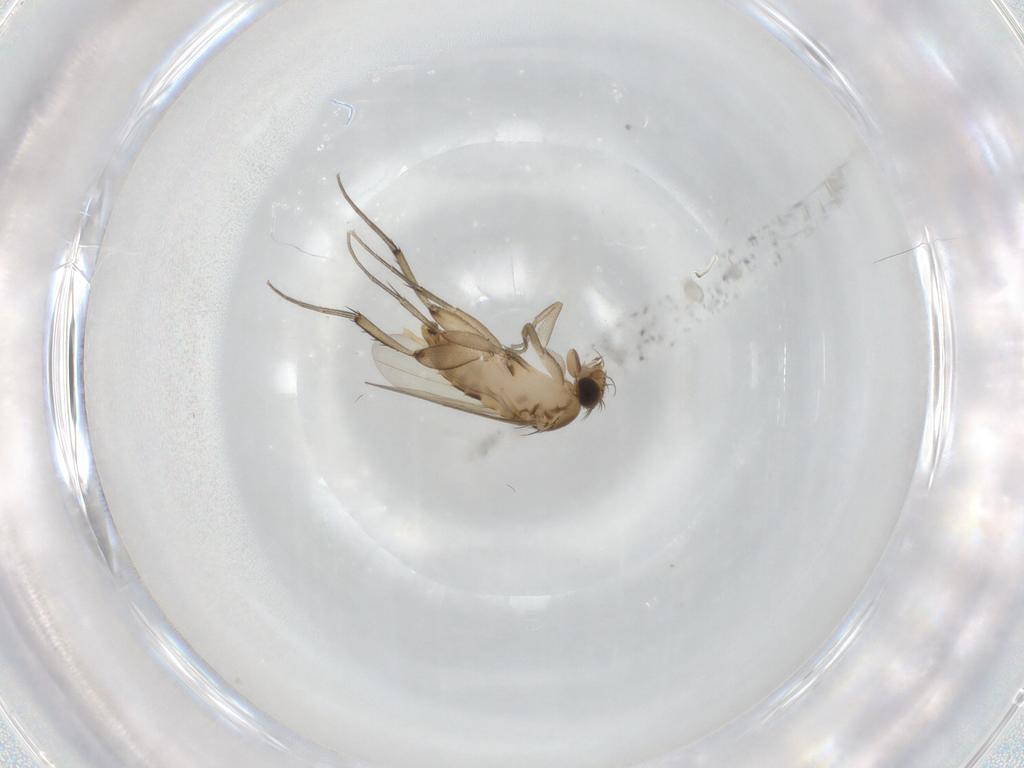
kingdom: Animalia
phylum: Arthropoda
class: Insecta
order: Diptera
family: Phoridae
